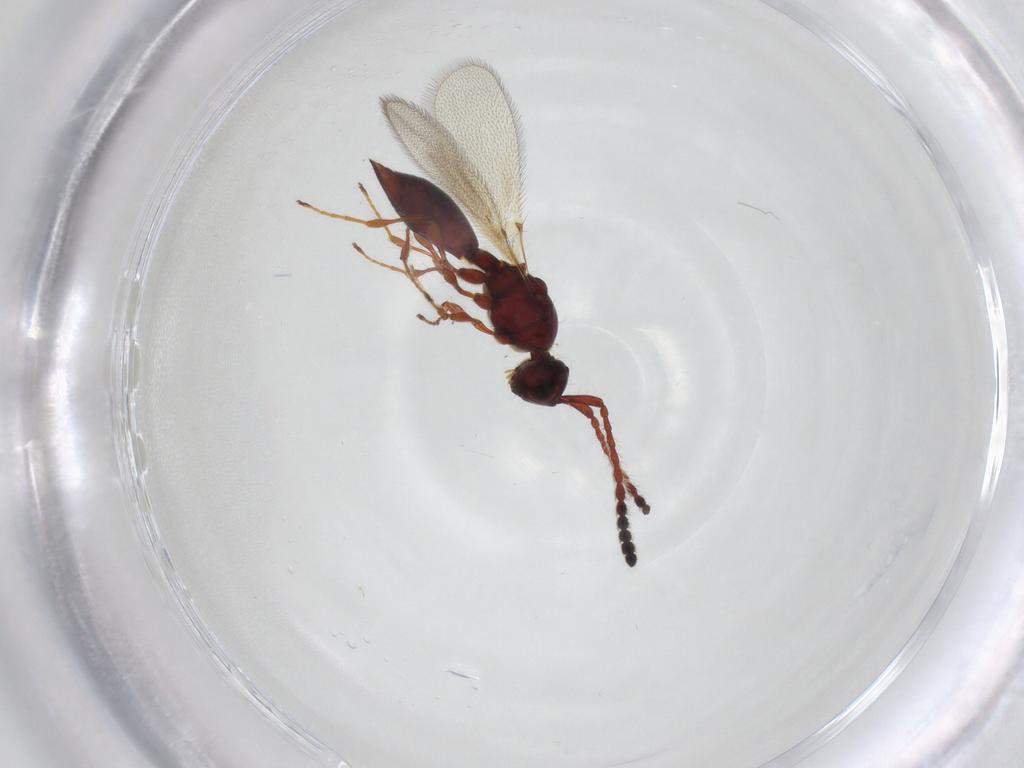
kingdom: Animalia
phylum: Arthropoda
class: Insecta
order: Hymenoptera
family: Diapriidae
